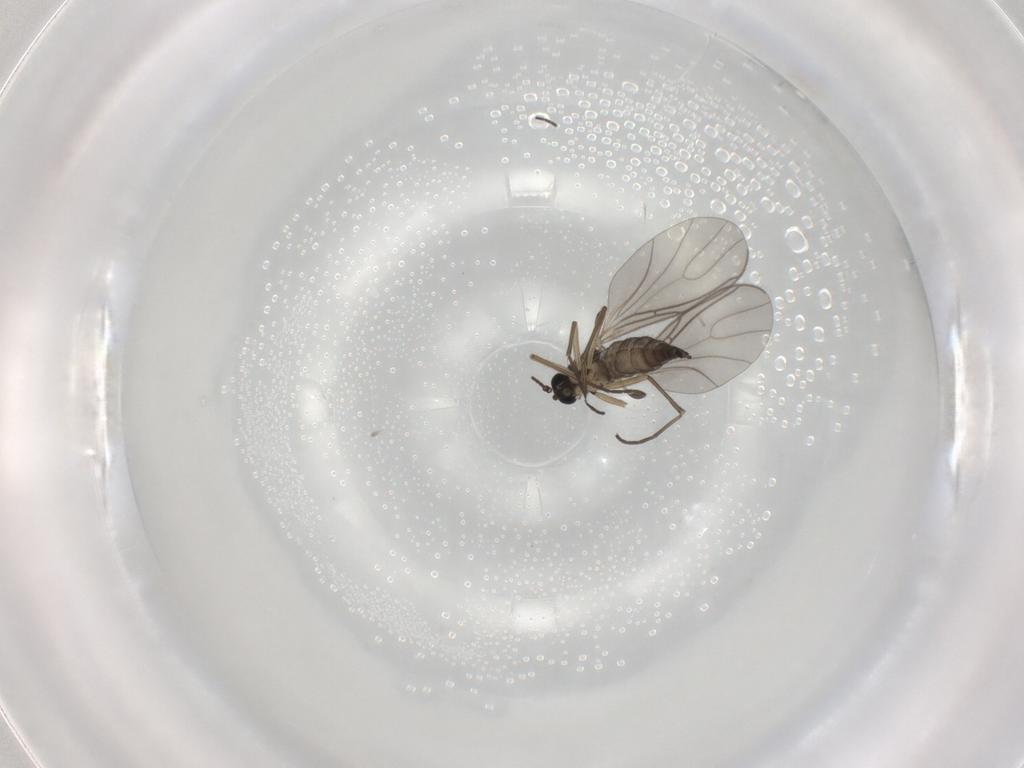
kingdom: Animalia
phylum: Arthropoda
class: Insecta
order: Diptera
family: Sciaridae
